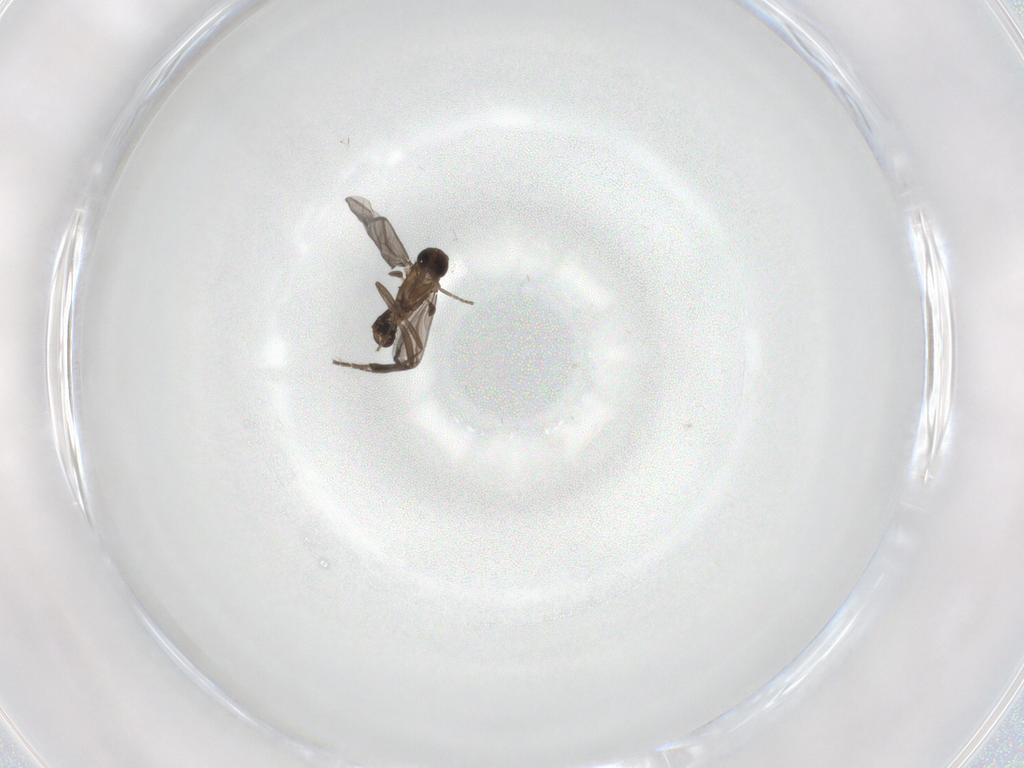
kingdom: Animalia
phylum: Arthropoda
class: Insecta
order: Diptera
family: Phoridae
